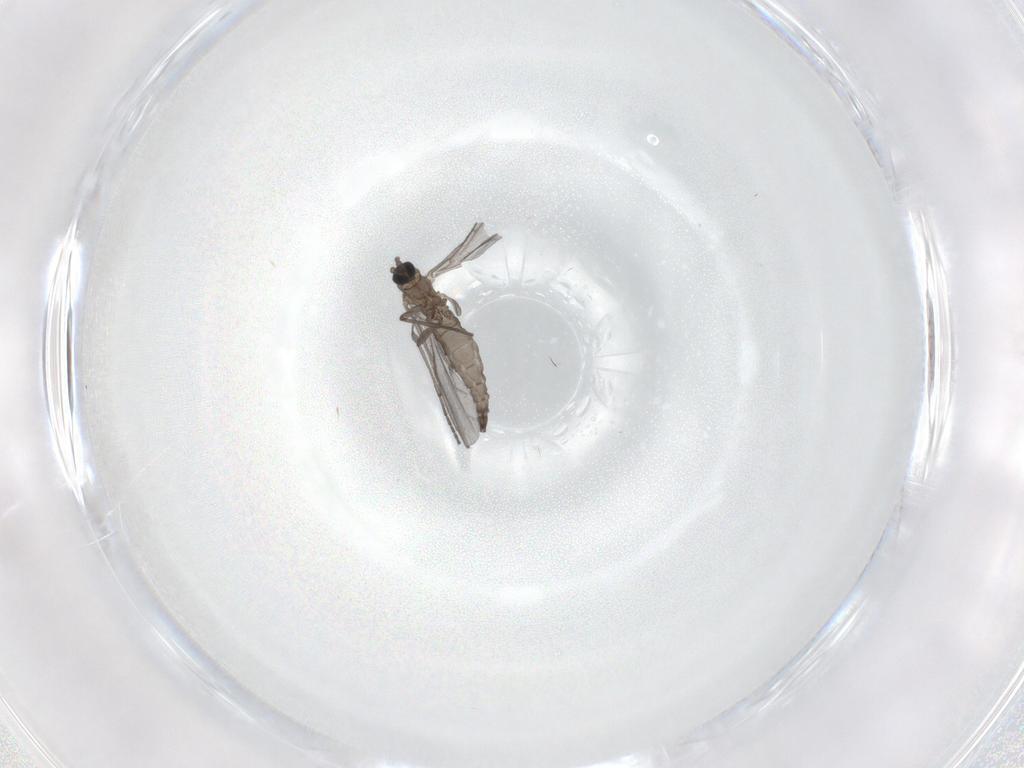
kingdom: Animalia
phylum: Arthropoda
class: Insecta
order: Diptera
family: Sciaridae
